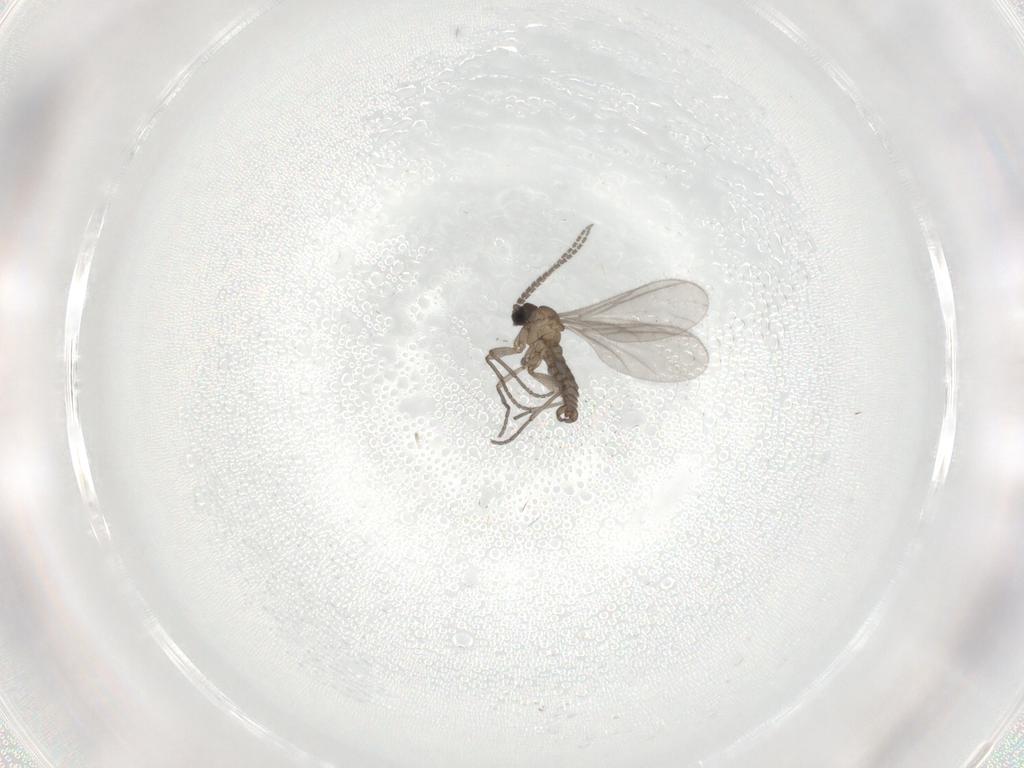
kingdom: Animalia
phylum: Arthropoda
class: Insecta
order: Diptera
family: Sciaridae
